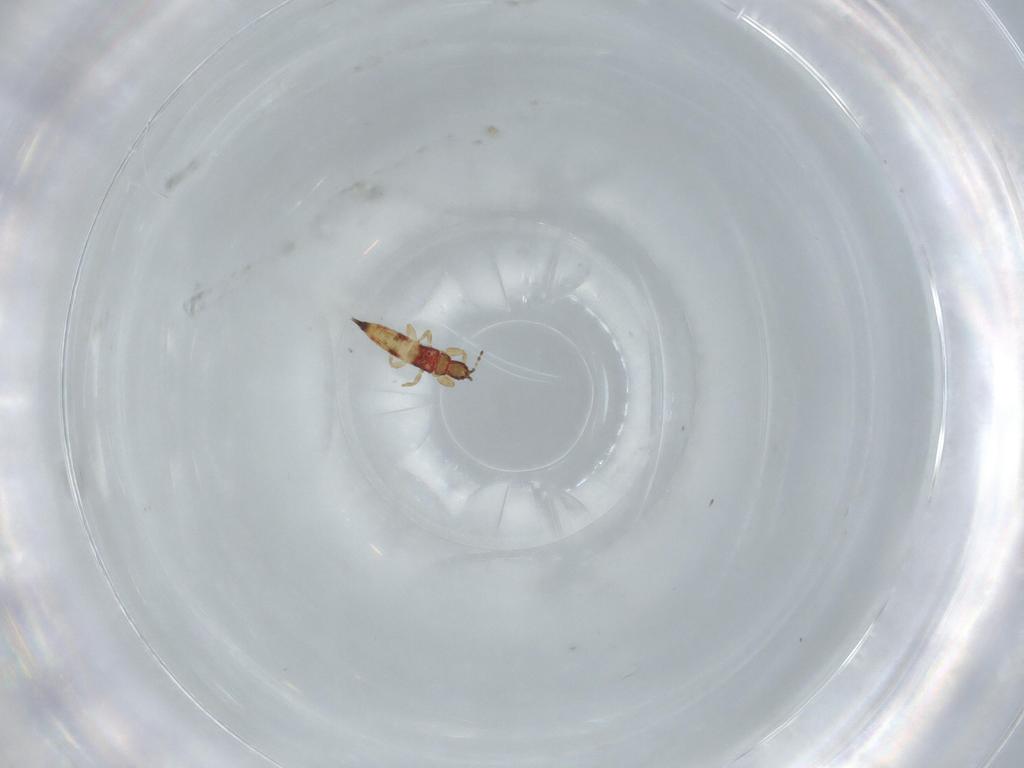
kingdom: Animalia
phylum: Arthropoda
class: Insecta
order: Thysanoptera
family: Phlaeothripidae
